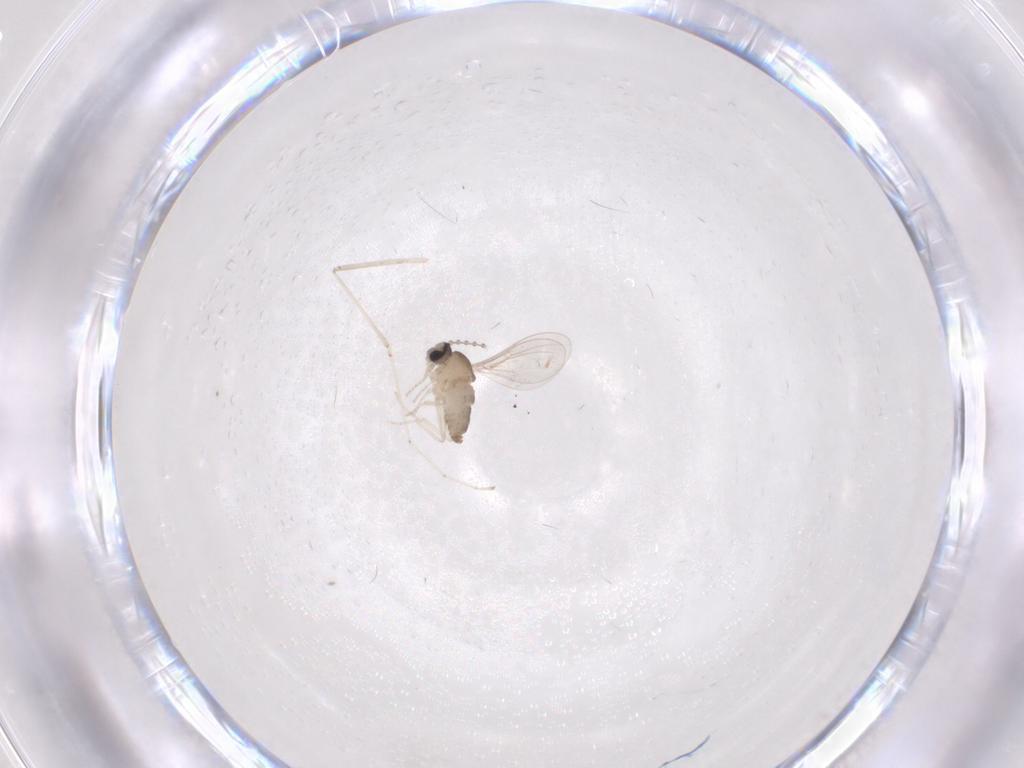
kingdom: Animalia
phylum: Arthropoda
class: Insecta
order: Diptera
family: Cecidomyiidae
